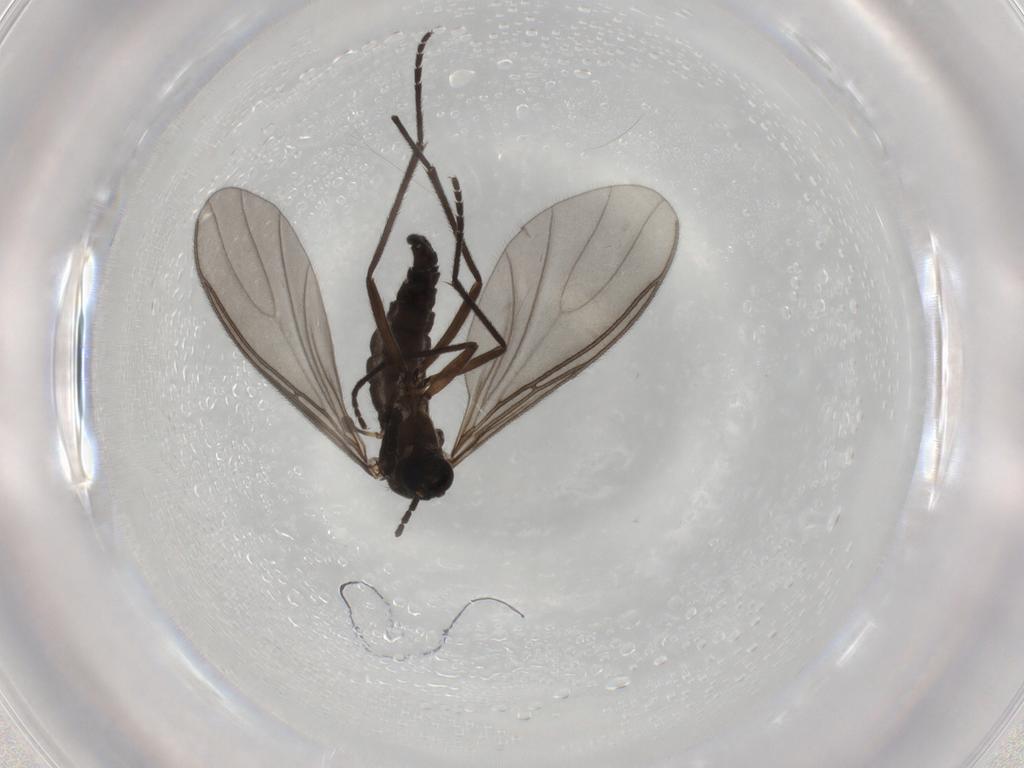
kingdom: Animalia
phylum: Arthropoda
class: Insecta
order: Diptera
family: Sciaridae
